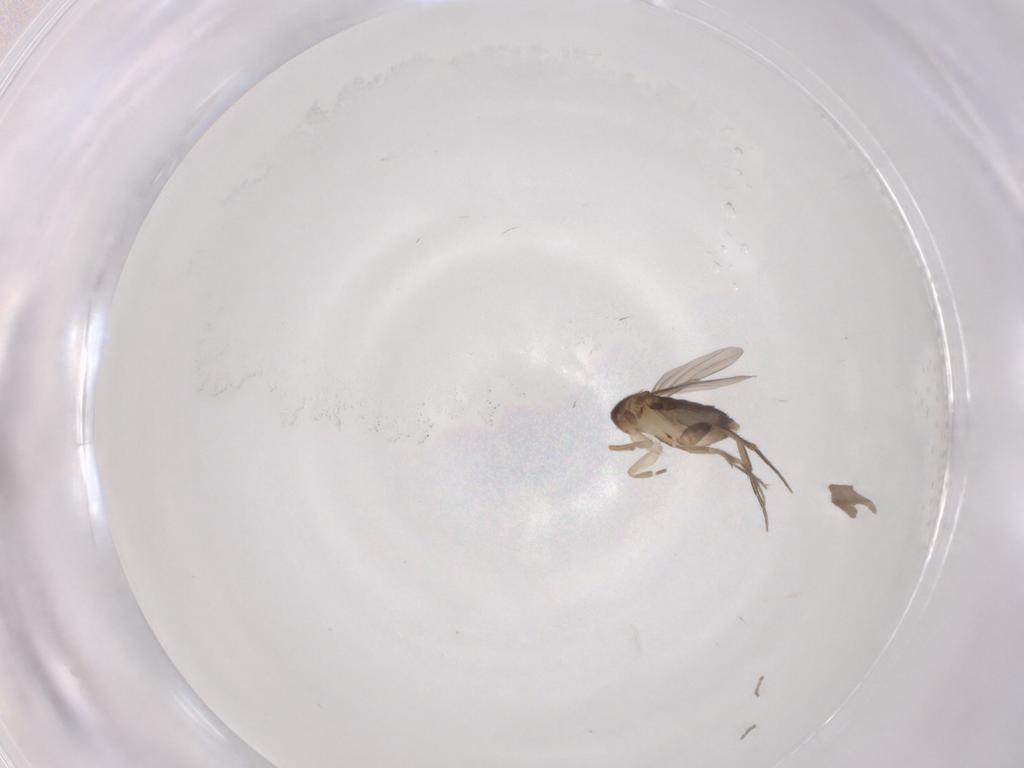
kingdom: Animalia
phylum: Arthropoda
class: Insecta
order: Diptera
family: Phoridae
